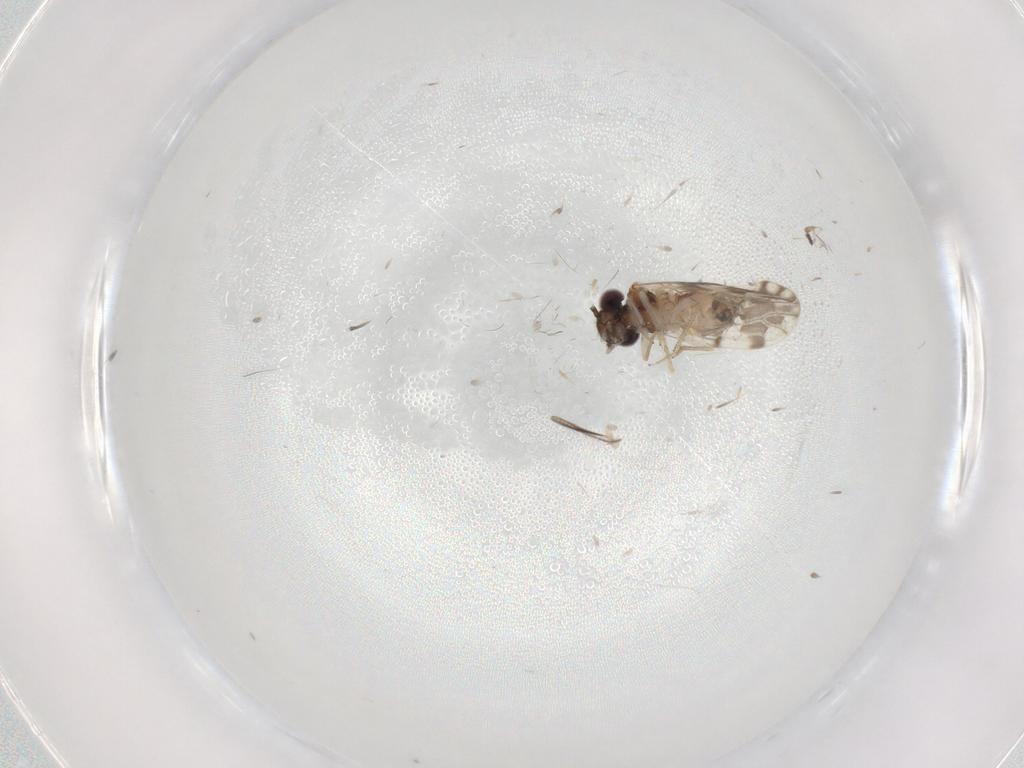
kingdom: Animalia
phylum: Arthropoda
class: Insecta
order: Psocodea
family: Ectopsocidae
